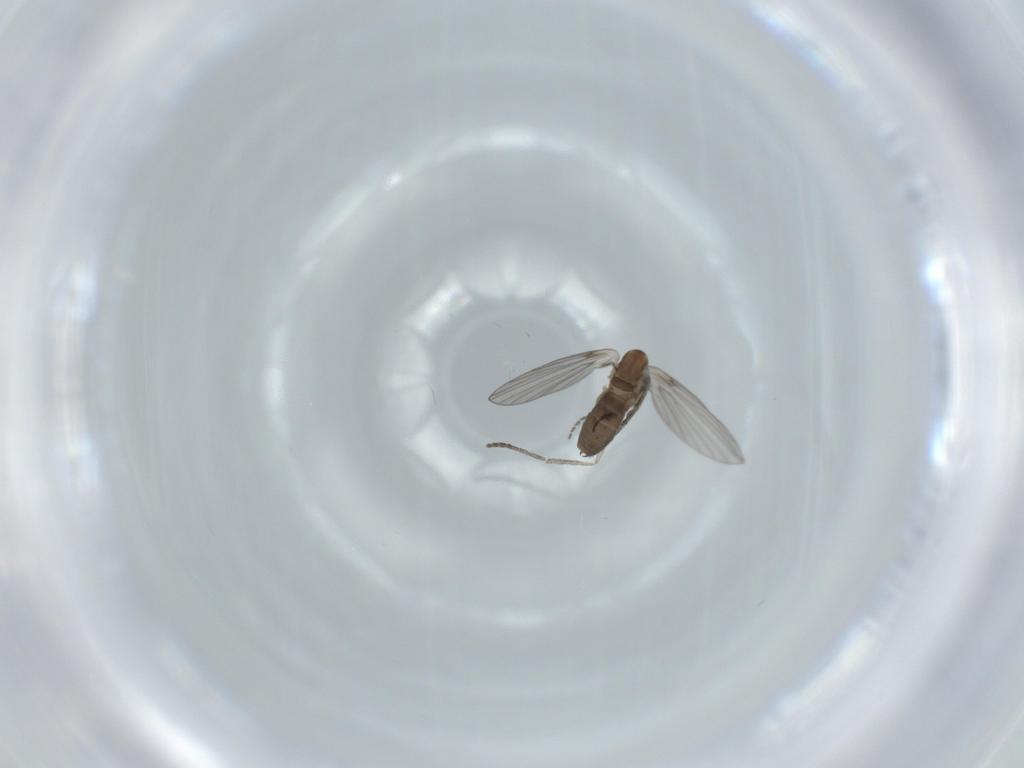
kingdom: Animalia
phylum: Arthropoda
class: Insecta
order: Diptera
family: Psychodidae
